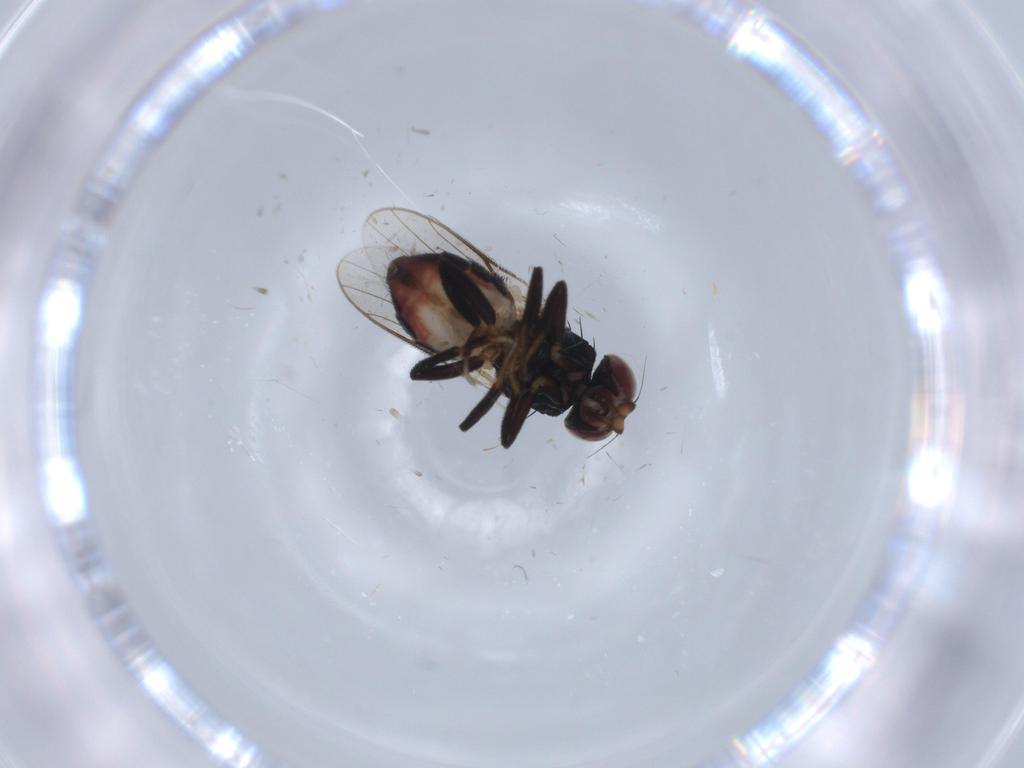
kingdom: Animalia
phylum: Arthropoda
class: Insecta
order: Diptera
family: Chloropidae
